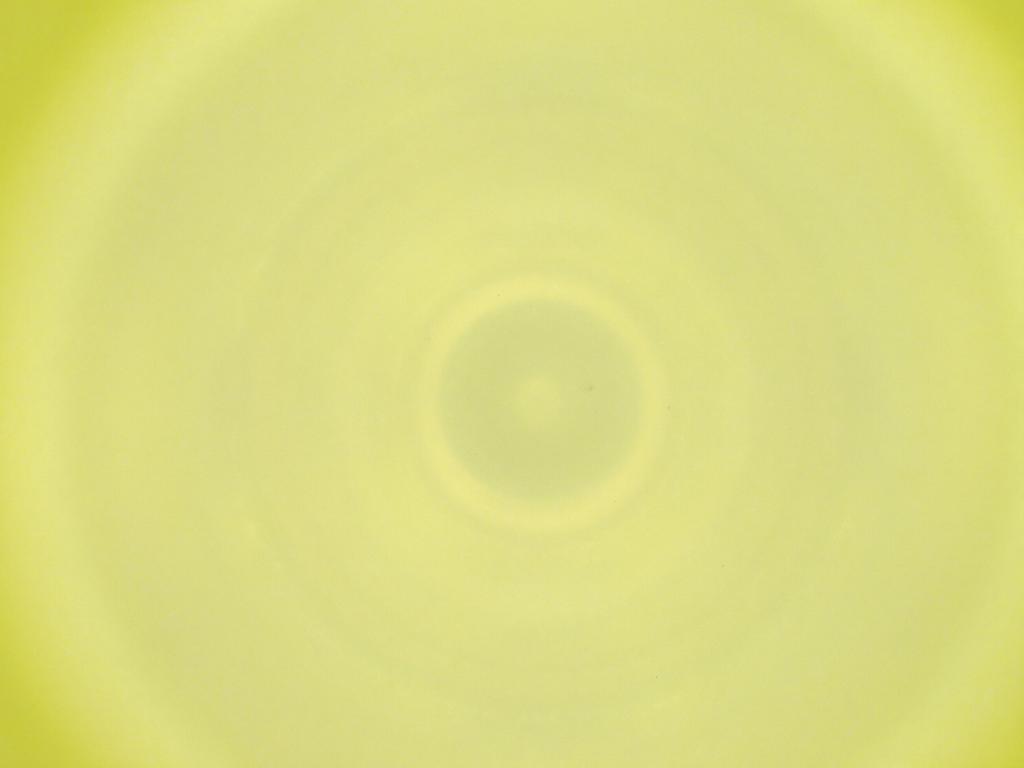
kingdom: Animalia
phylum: Arthropoda
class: Insecta
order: Diptera
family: Cecidomyiidae
